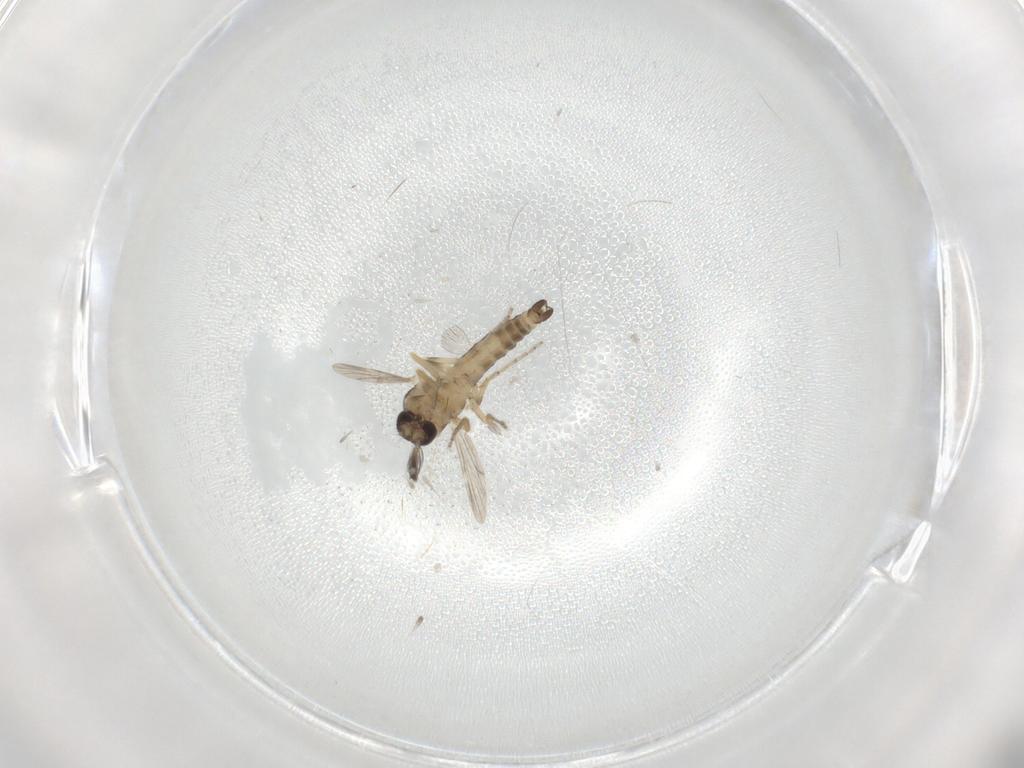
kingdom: Animalia
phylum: Arthropoda
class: Insecta
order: Diptera
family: Ceratopogonidae
